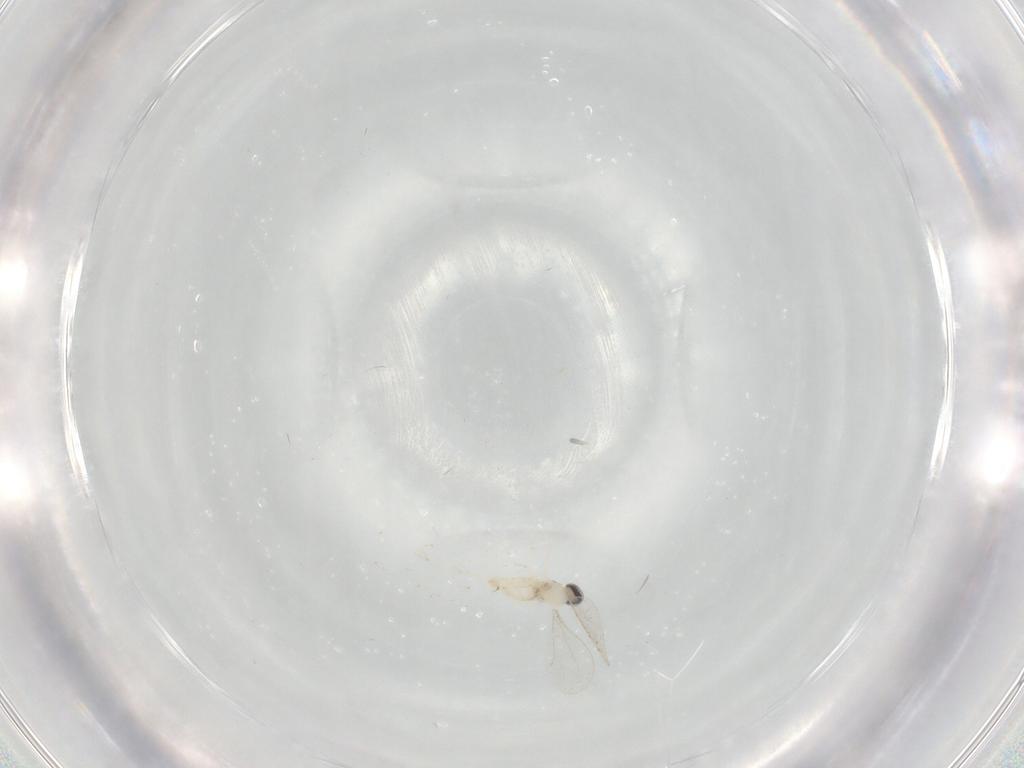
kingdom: Animalia
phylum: Arthropoda
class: Insecta
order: Diptera
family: Cecidomyiidae
